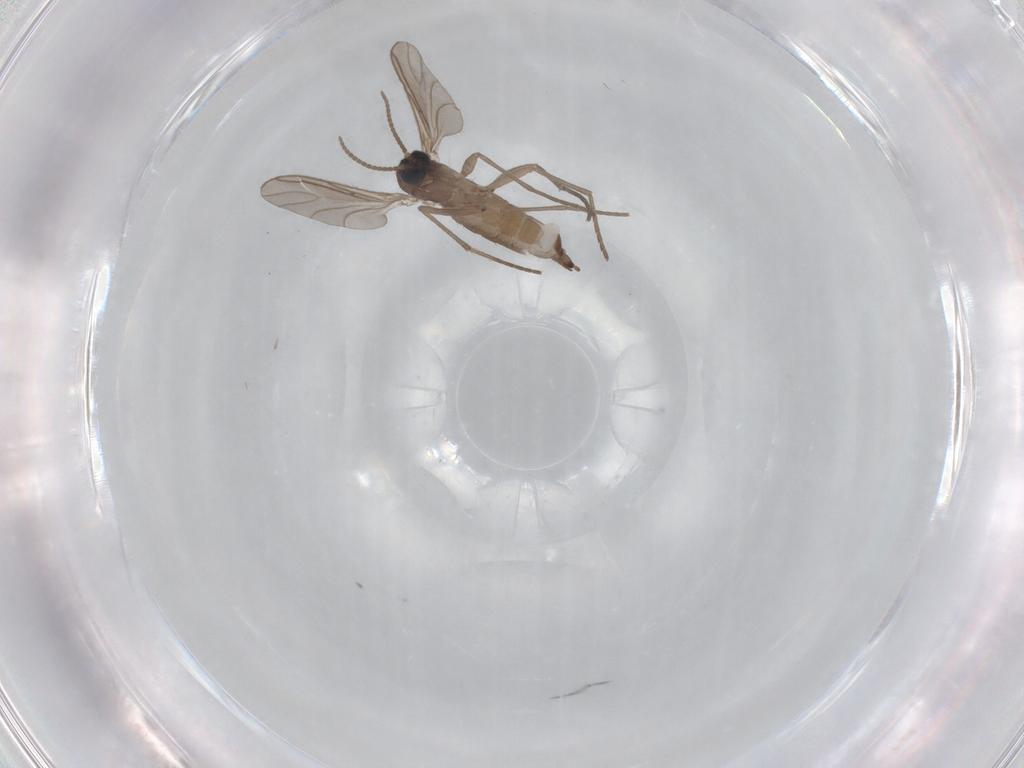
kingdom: Animalia
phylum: Arthropoda
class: Insecta
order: Diptera
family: Sciaridae
